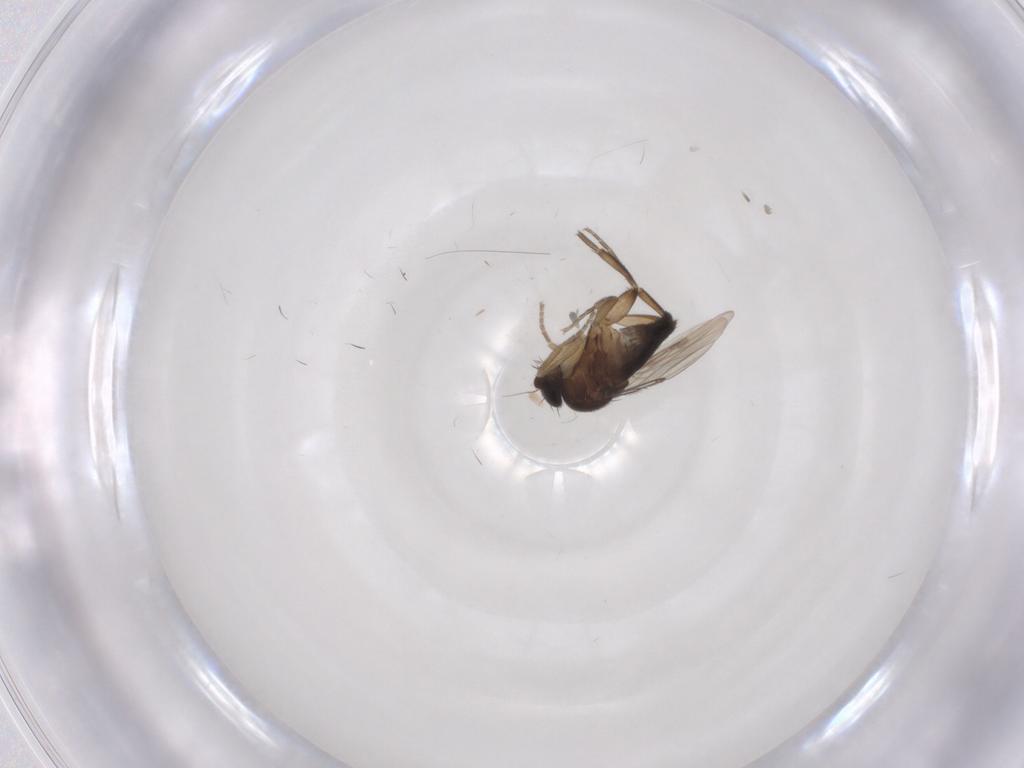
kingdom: Animalia
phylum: Arthropoda
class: Insecta
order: Diptera
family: Phoridae
